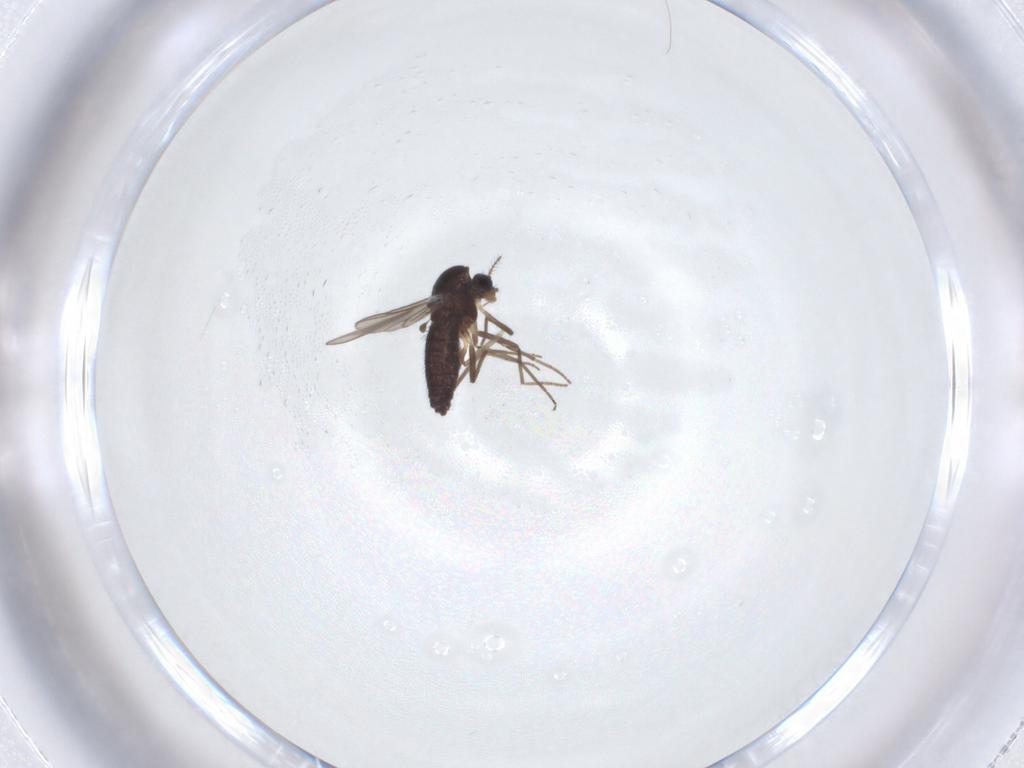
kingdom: Animalia
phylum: Arthropoda
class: Insecta
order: Diptera
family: Chironomidae
